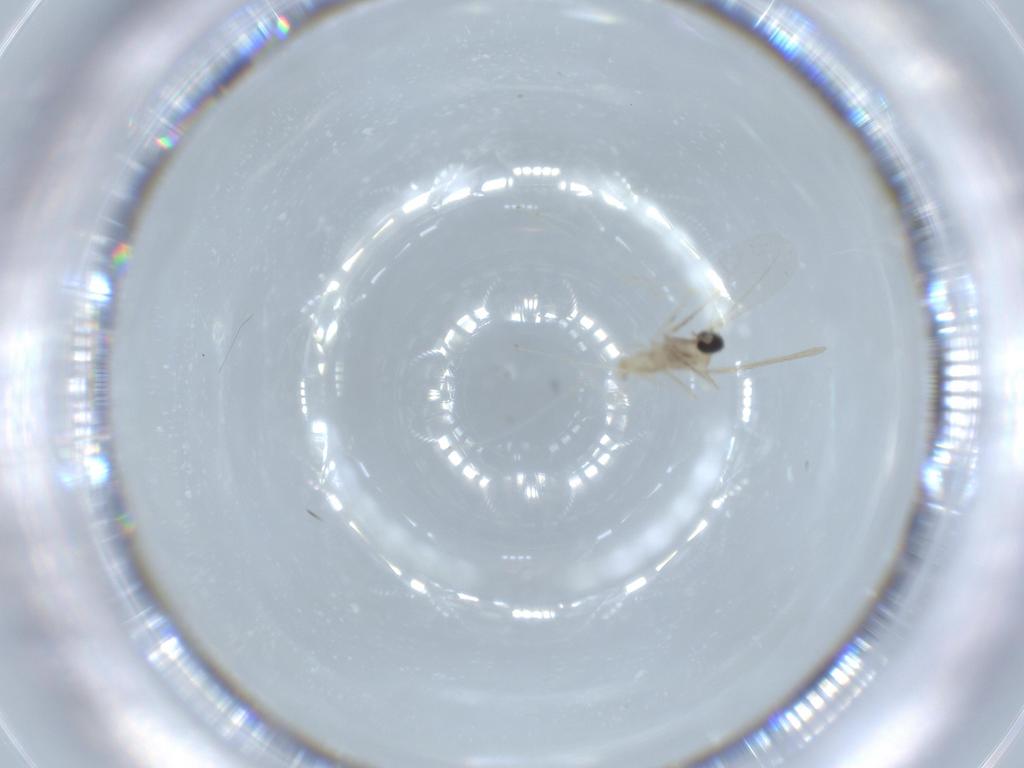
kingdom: Animalia
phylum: Arthropoda
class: Insecta
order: Diptera
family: Cecidomyiidae
